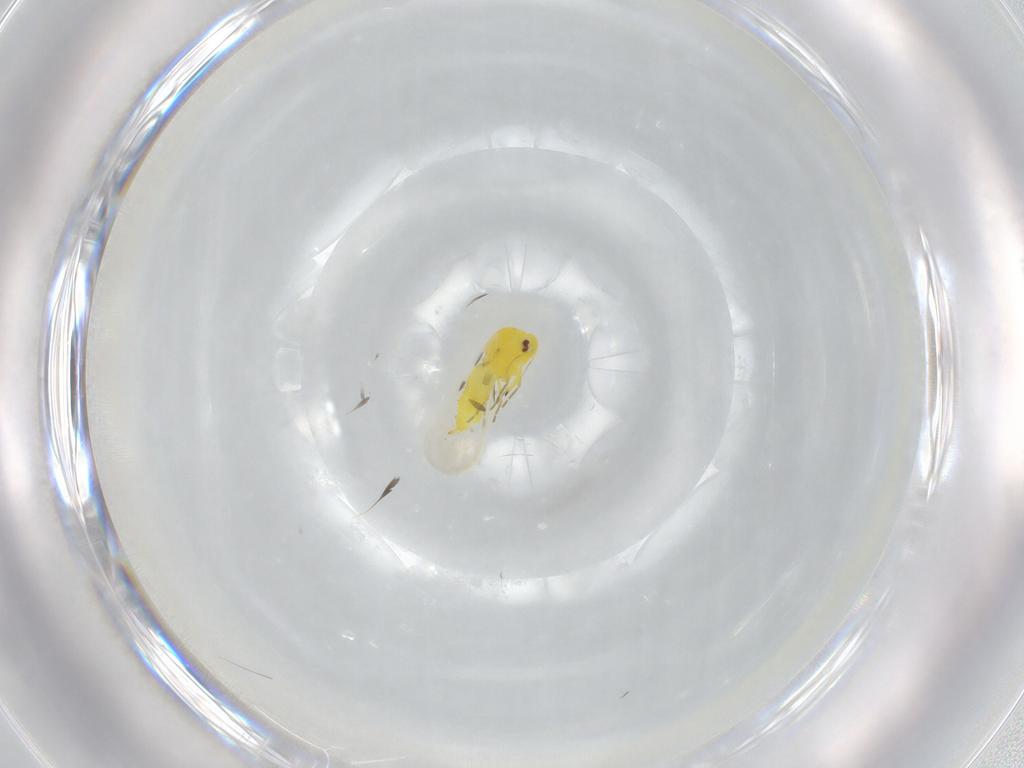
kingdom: Animalia
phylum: Arthropoda
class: Insecta
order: Hemiptera
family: Aleyrodidae
